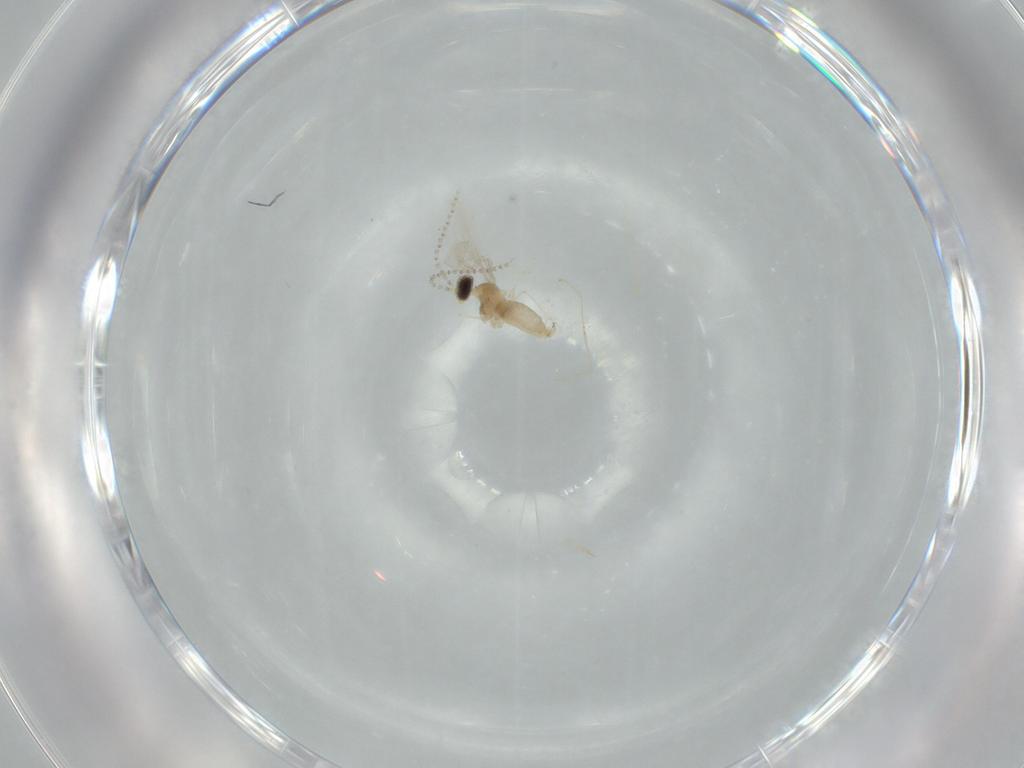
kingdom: Animalia
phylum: Arthropoda
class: Insecta
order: Diptera
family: Cecidomyiidae
